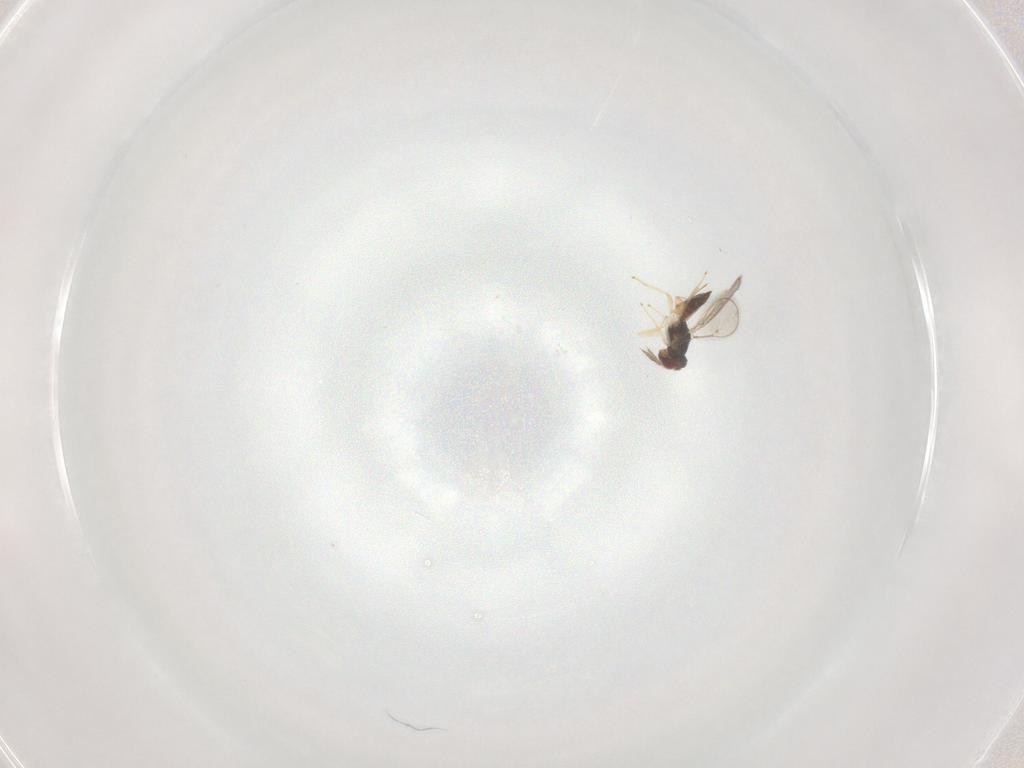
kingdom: Animalia
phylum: Arthropoda
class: Insecta
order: Hymenoptera
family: Eulophidae
